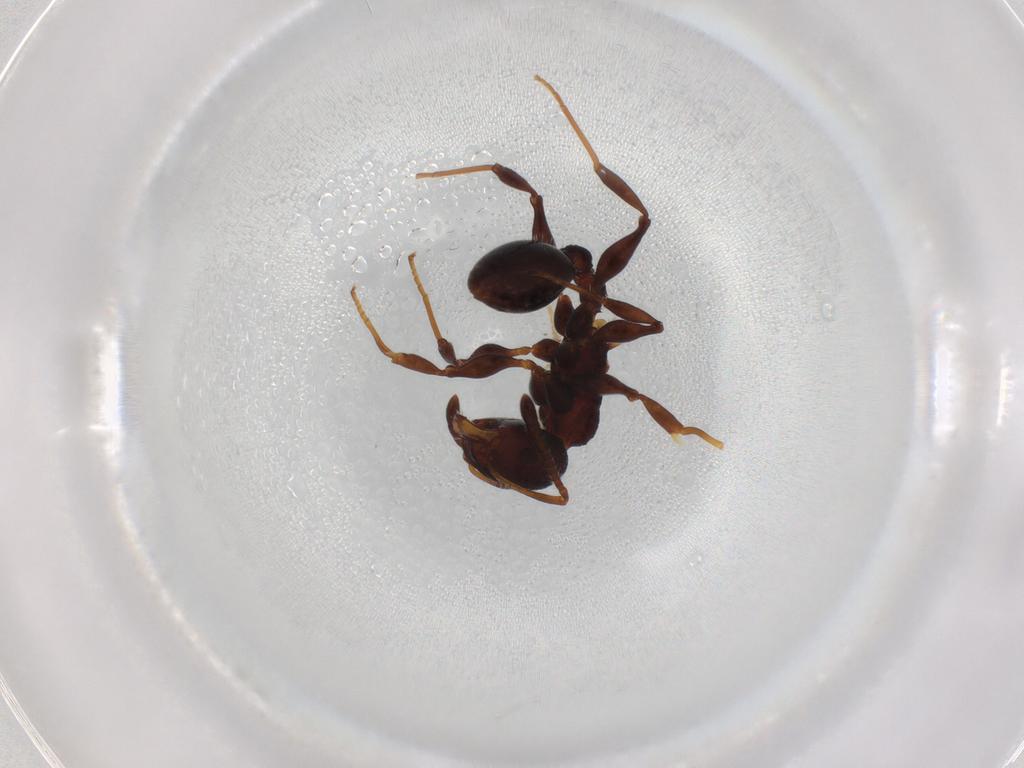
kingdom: Animalia
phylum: Arthropoda
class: Insecta
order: Hymenoptera
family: Formicidae
